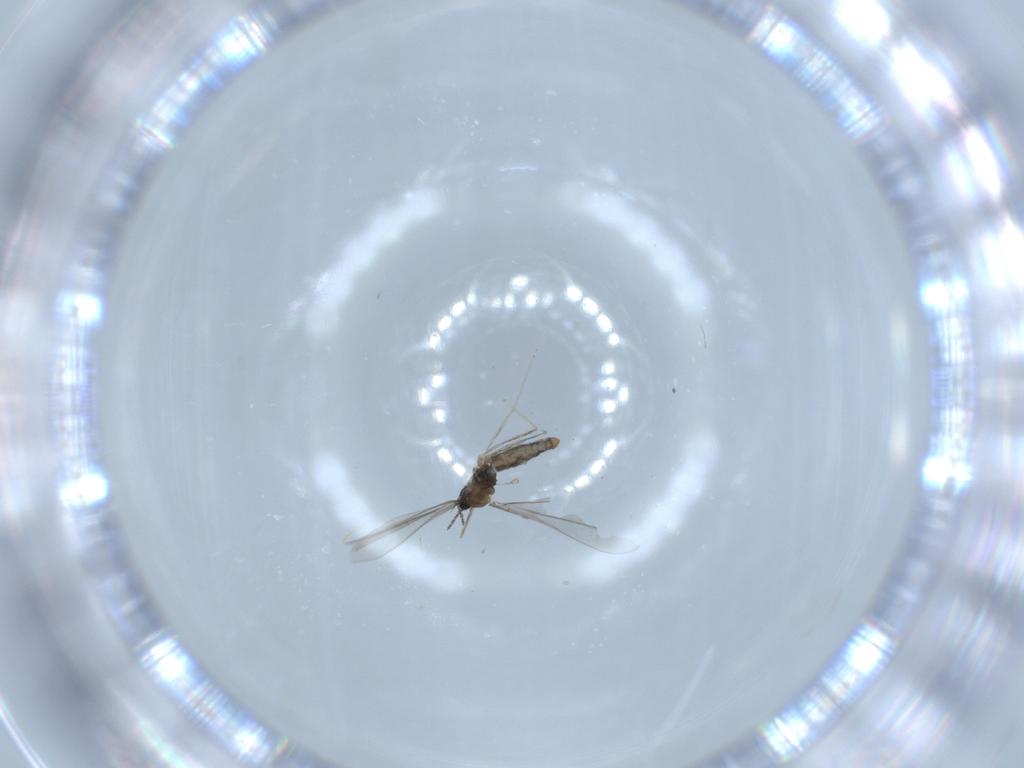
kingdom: Animalia
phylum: Arthropoda
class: Insecta
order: Diptera
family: Cecidomyiidae
